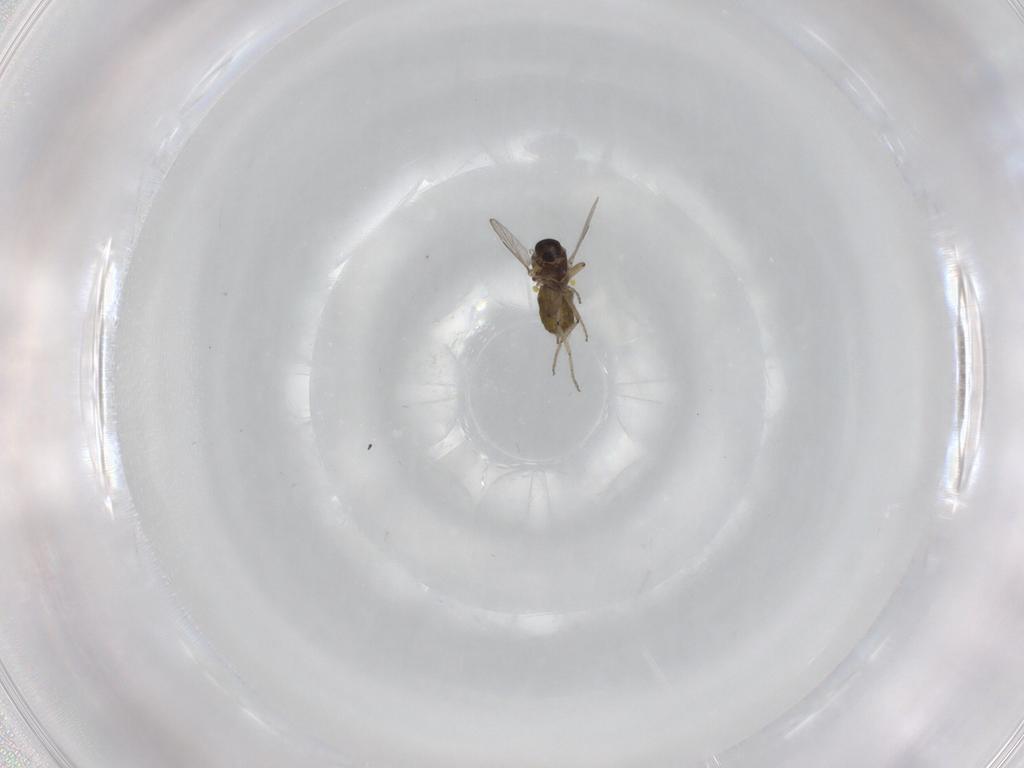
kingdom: Animalia
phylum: Arthropoda
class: Insecta
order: Diptera
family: Ceratopogonidae
